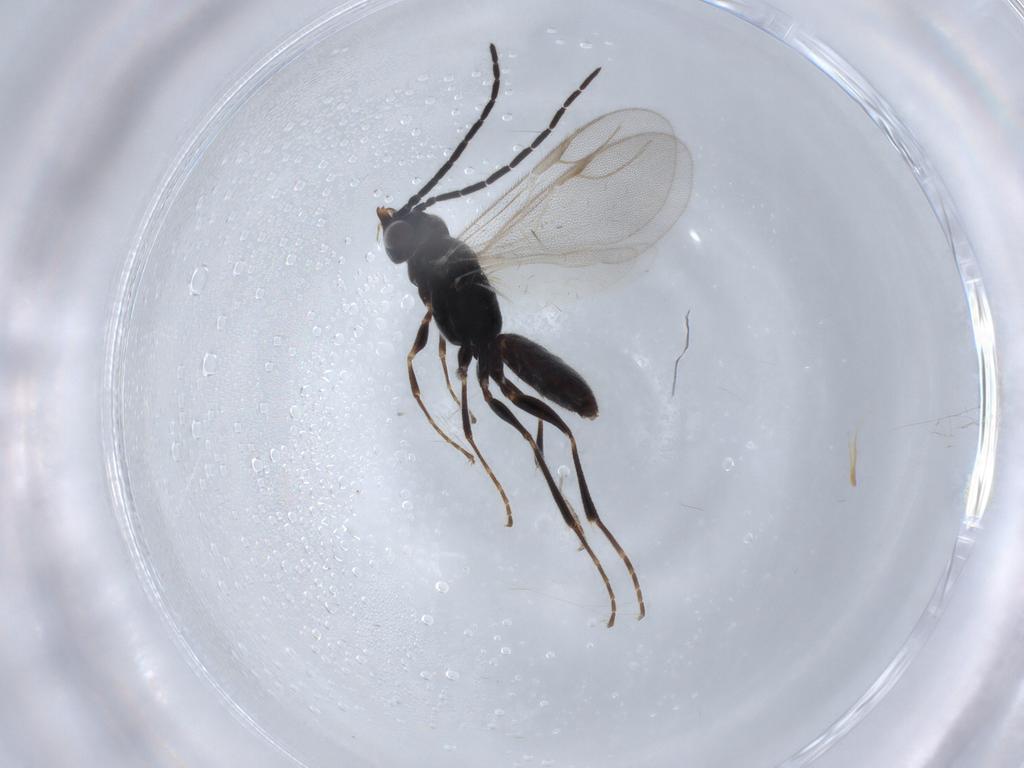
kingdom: Animalia
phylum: Arthropoda
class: Insecta
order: Hymenoptera
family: Dryinidae
